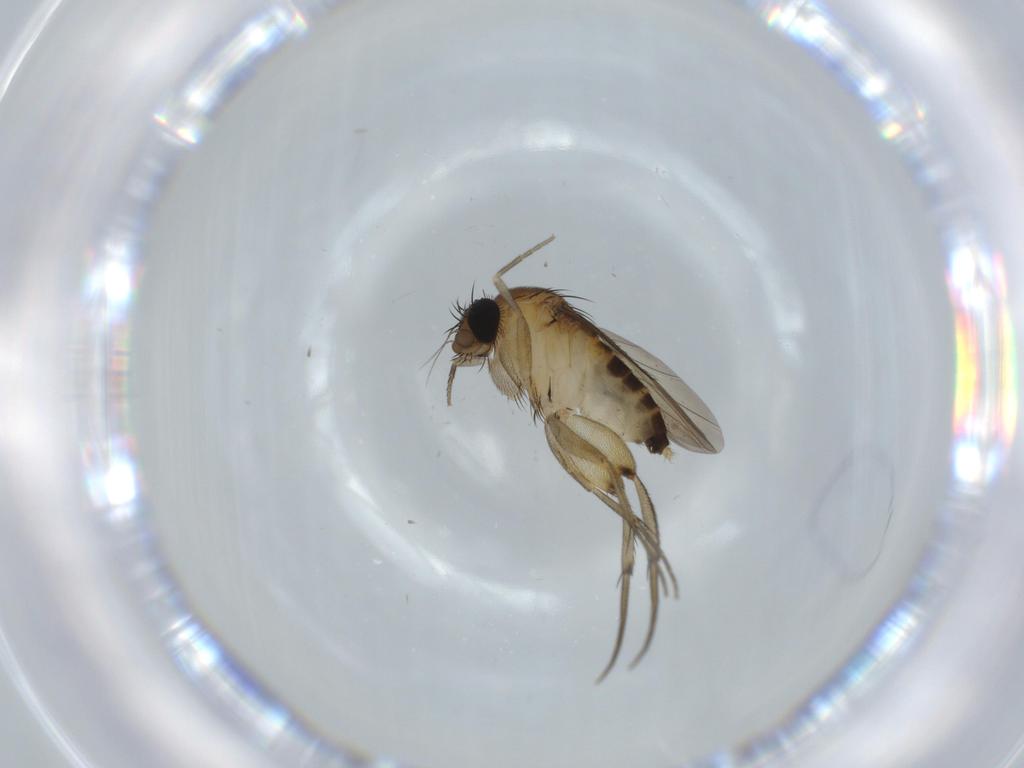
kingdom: Animalia
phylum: Arthropoda
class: Insecta
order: Diptera
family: Phoridae
